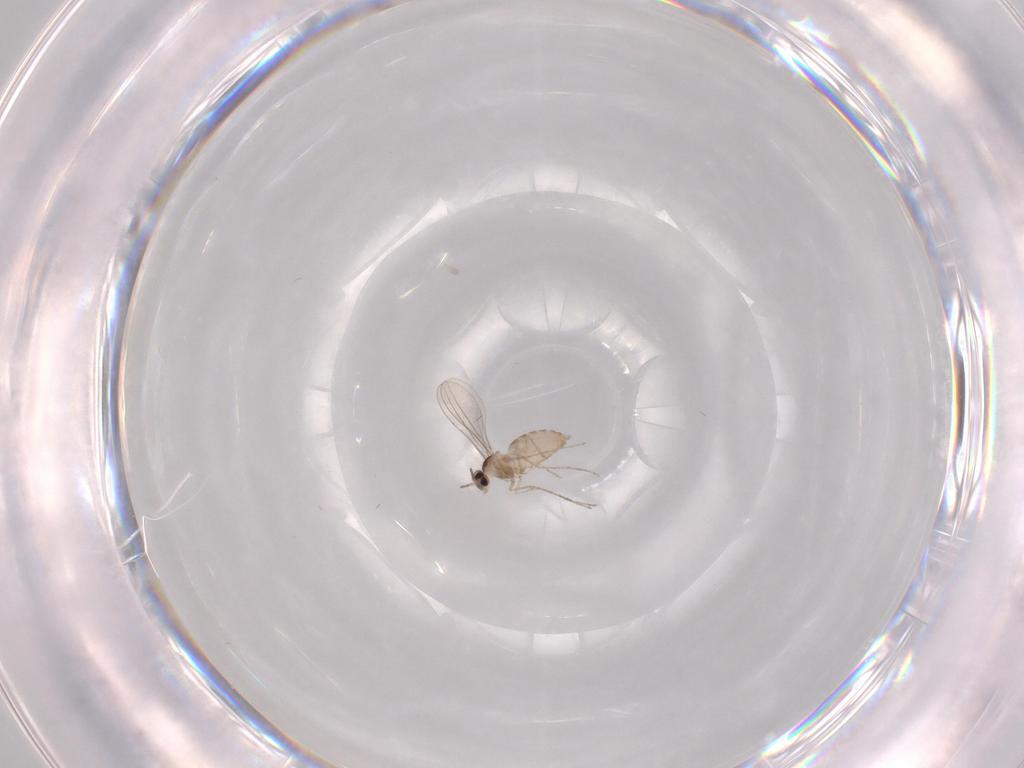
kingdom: Animalia
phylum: Arthropoda
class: Insecta
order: Diptera
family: Cecidomyiidae
